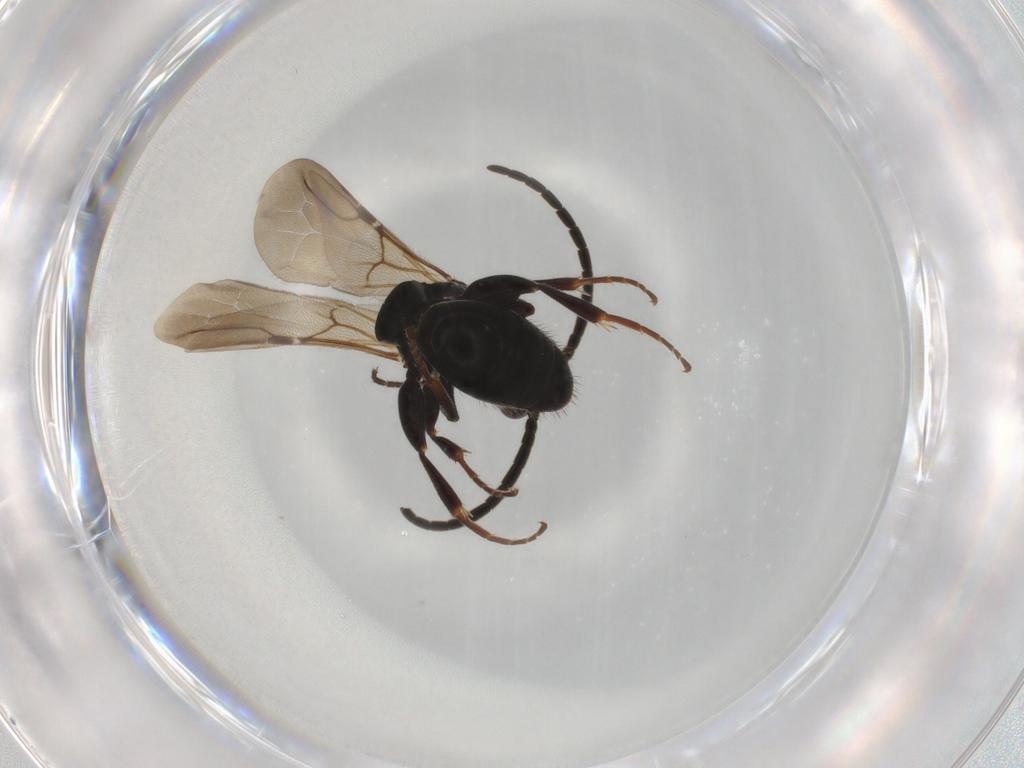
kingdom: Animalia
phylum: Arthropoda
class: Insecta
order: Hymenoptera
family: Bethylidae
